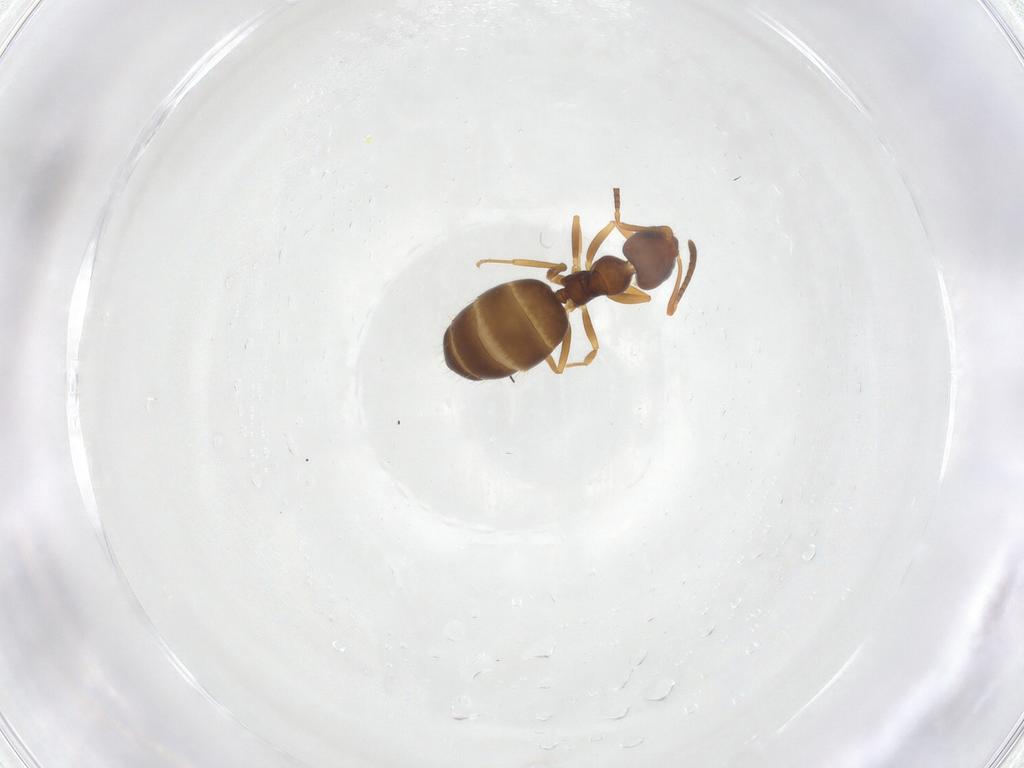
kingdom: Animalia
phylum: Arthropoda
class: Insecta
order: Hymenoptera
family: Formicidae
